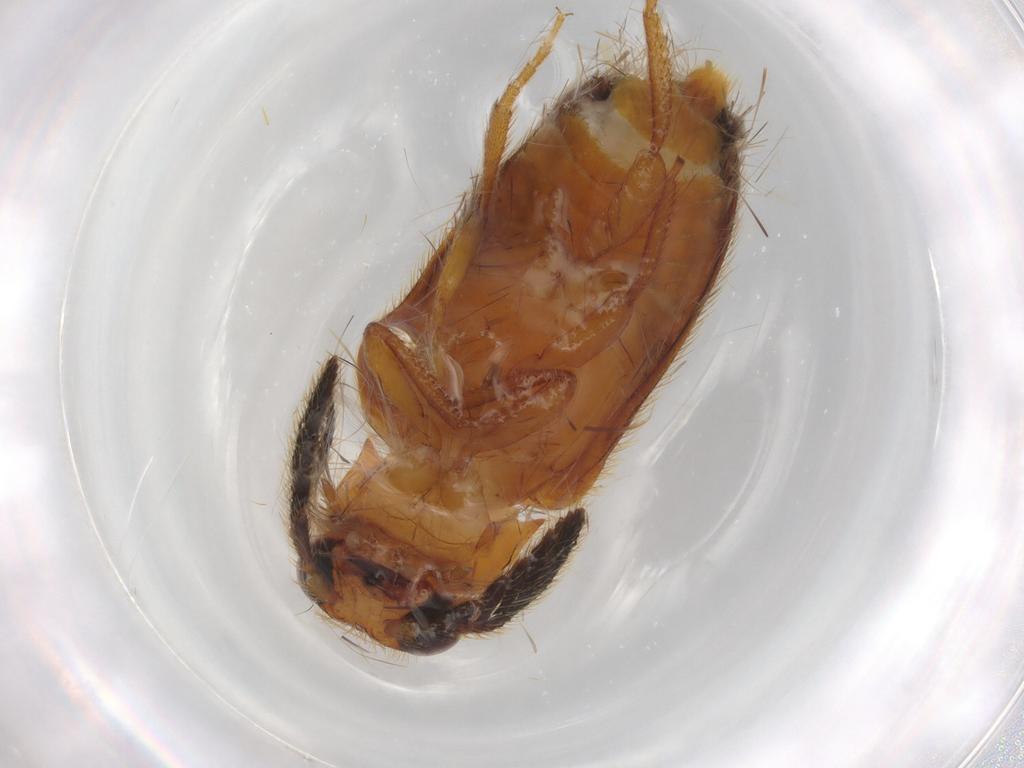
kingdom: Animalia
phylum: Arthropoda
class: Insecta
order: Coleoptera
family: Elateridae
